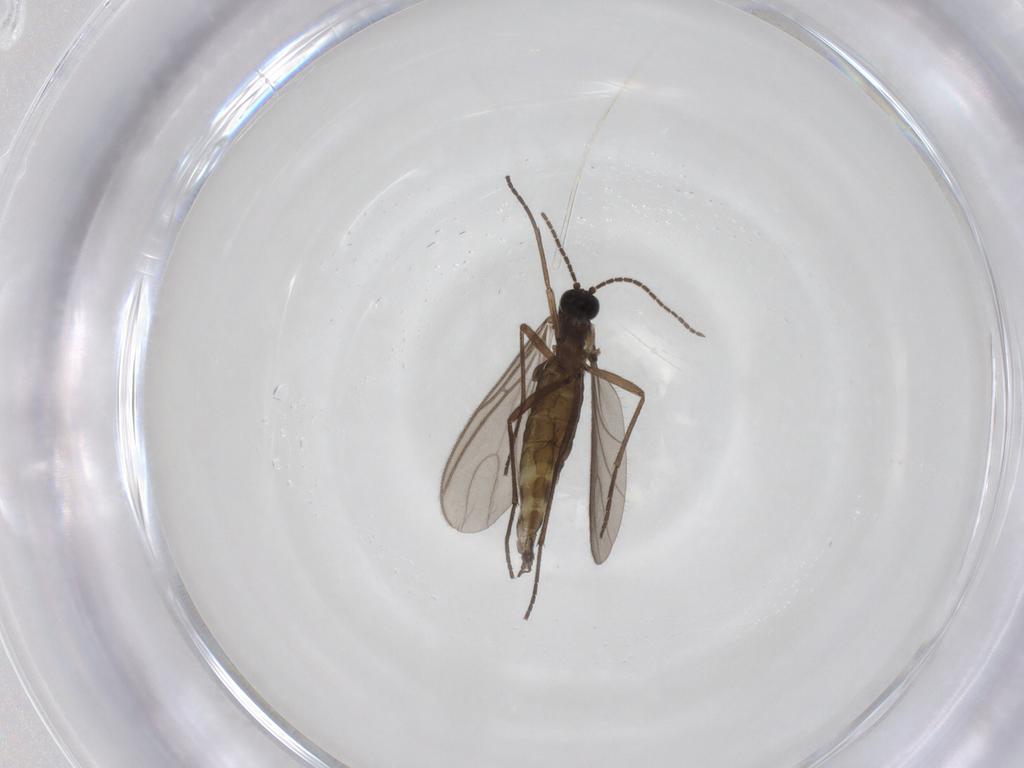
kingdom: Animalia
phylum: Arthropoda
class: Insecta
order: Diptera
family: Sciaridae
